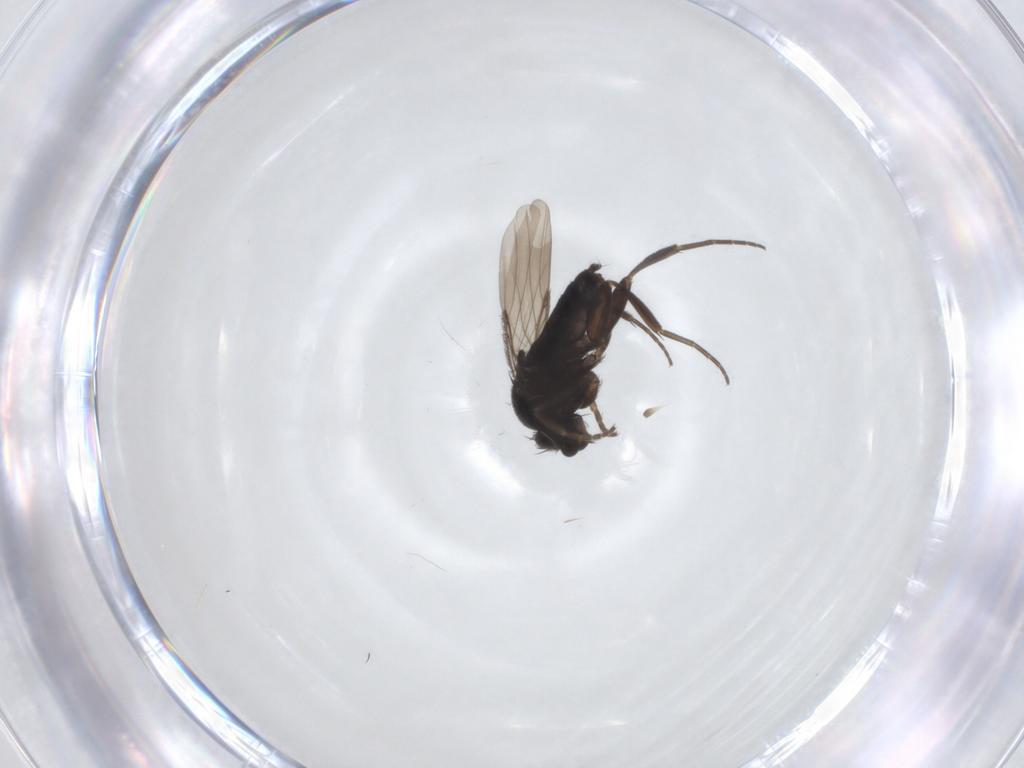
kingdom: Animalia
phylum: Arthropoda
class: Insecta
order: Diptera
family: Phoridae
